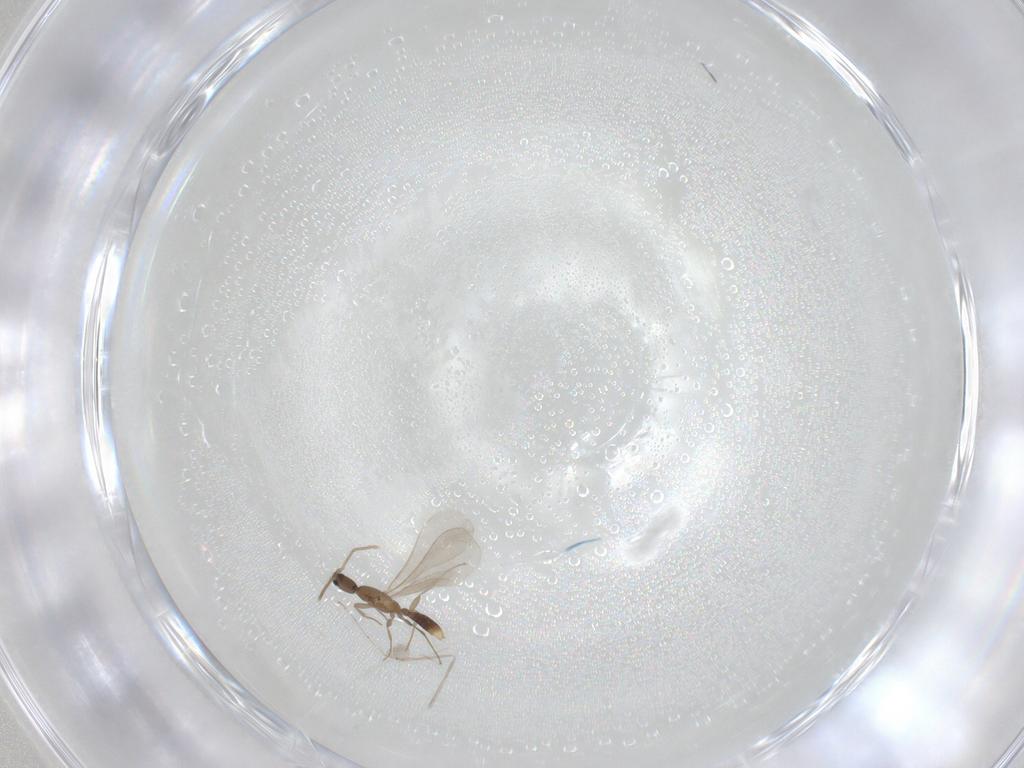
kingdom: Animalia
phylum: Arthropoda
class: Insecta
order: Hymenoptera
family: Formicidae
